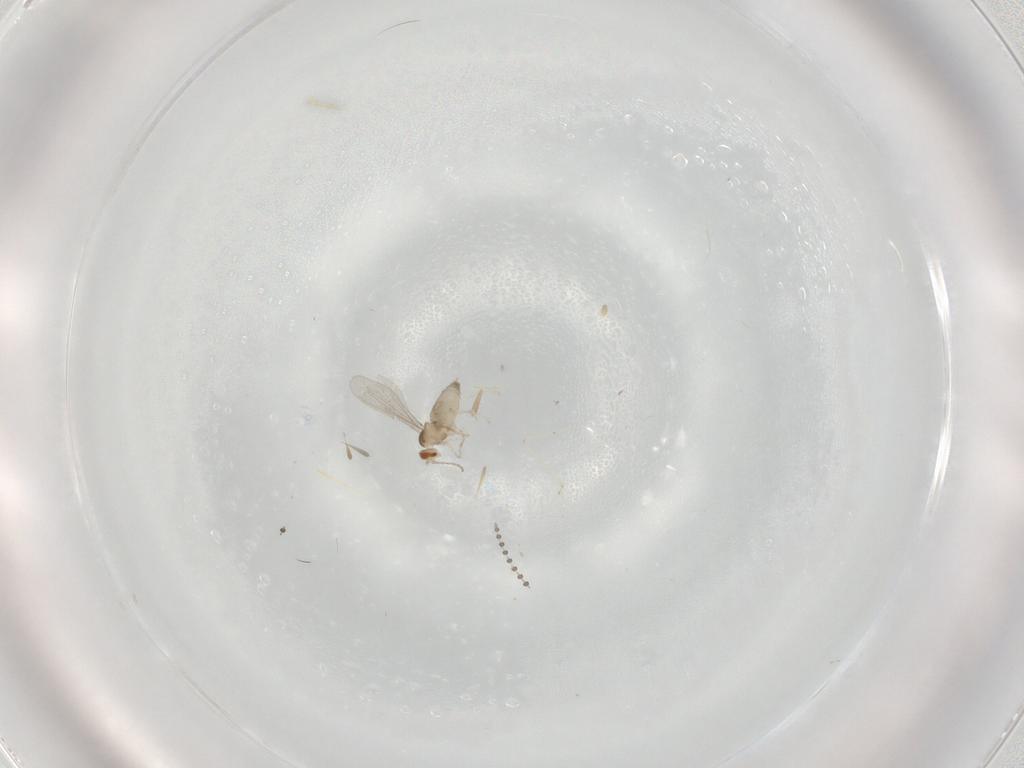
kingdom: Animalia
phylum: Arthropoda
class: Insecta
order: Diptera
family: Cecidomyiidae
